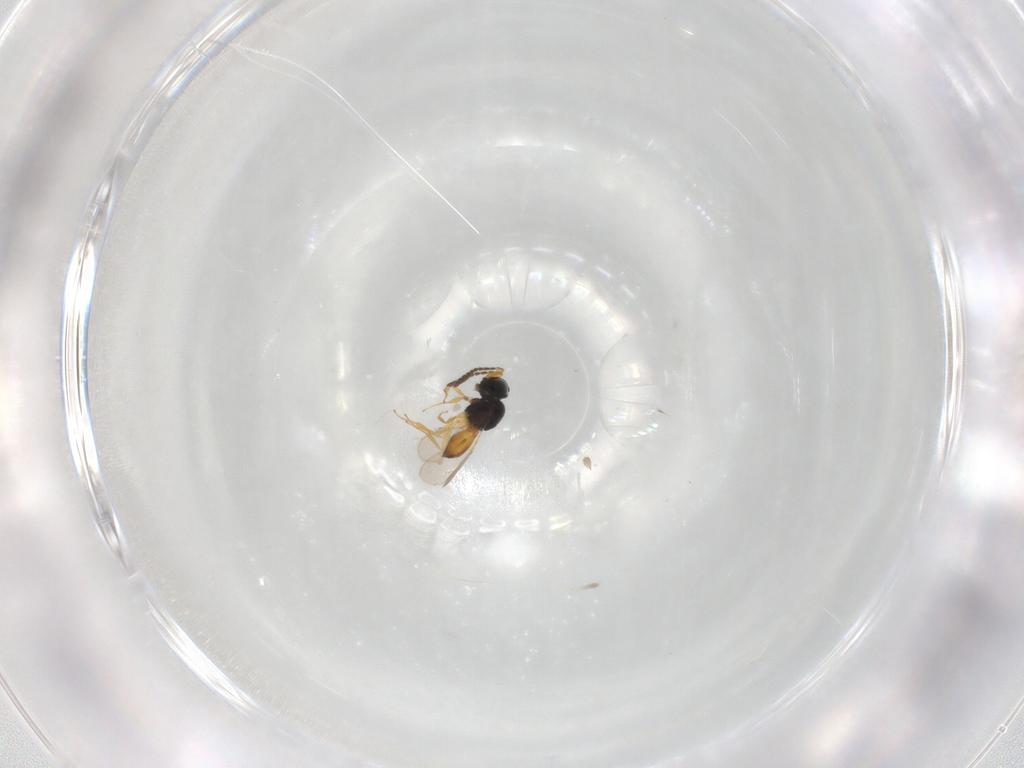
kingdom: Animalia
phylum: Arthropoda
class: Insecta
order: Hymenoptera
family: Scelionidae
